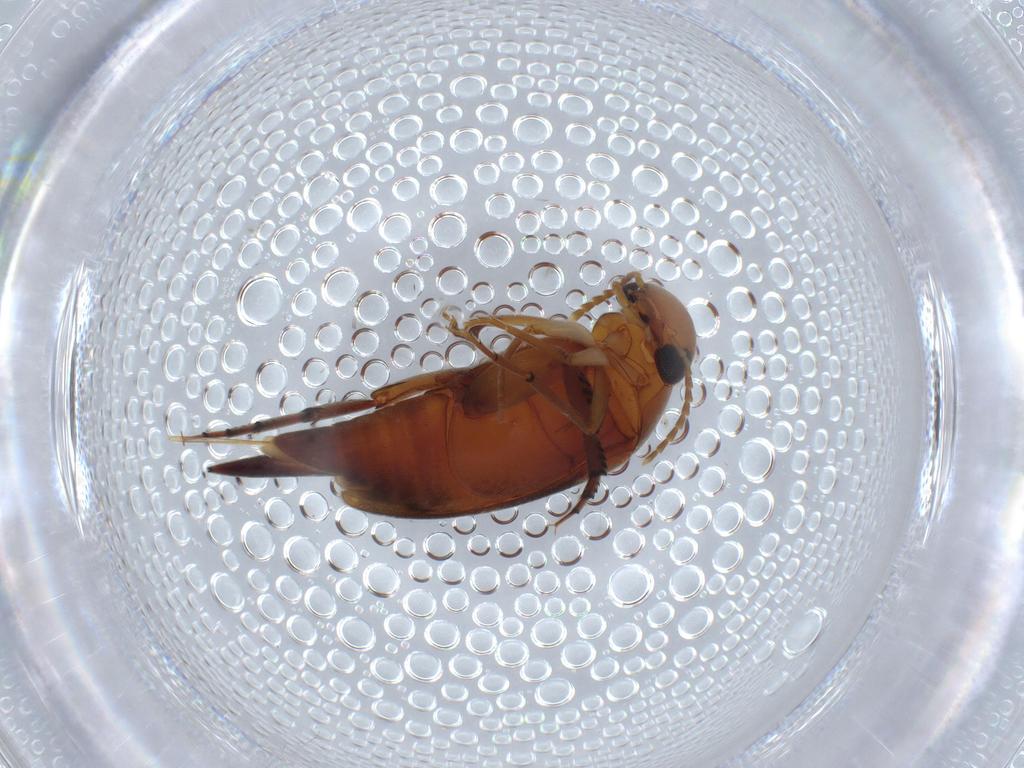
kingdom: Animalia
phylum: Arthropoda
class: Insecta
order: Coleoptera
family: Mordellidae
